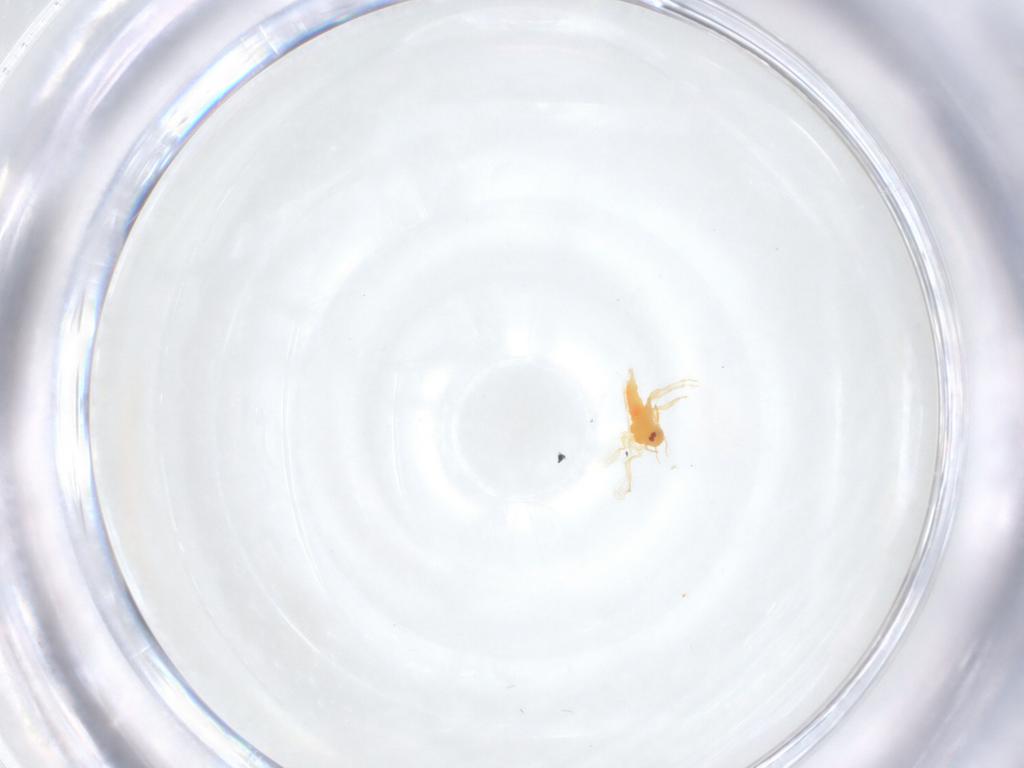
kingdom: Animalia
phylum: Arthropoda
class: Insecta
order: Hemiptera
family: Aleyrodidae
